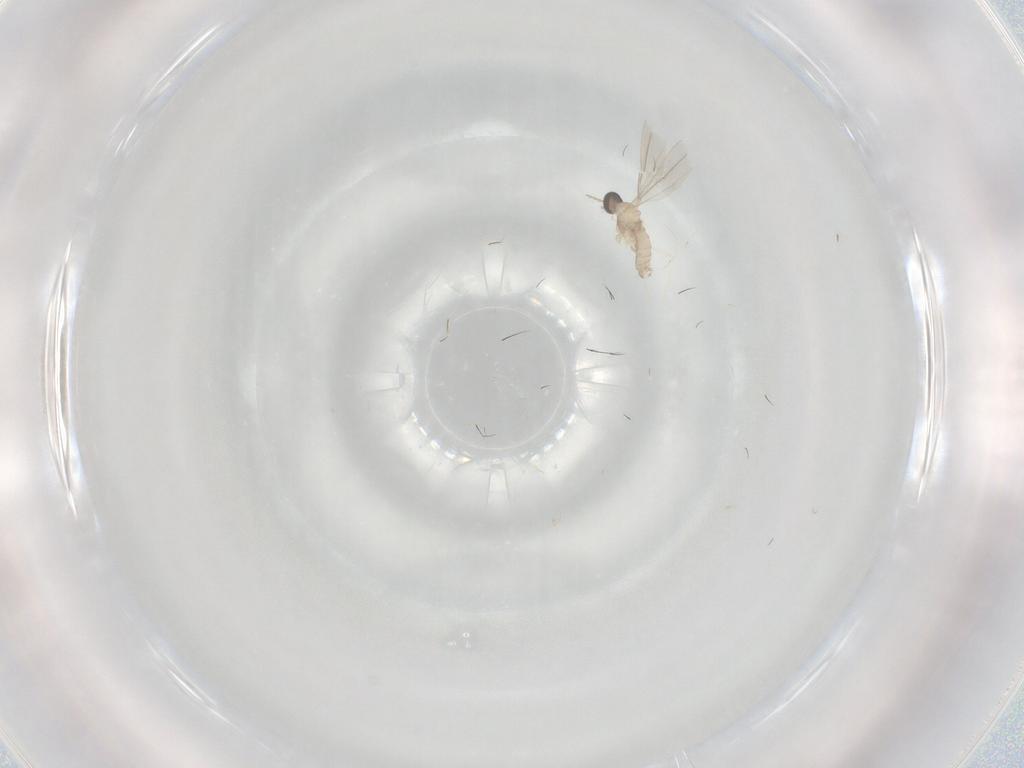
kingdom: Animalia
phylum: Arthropoda
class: Insecta
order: Diptera
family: Cecidomyiidae
